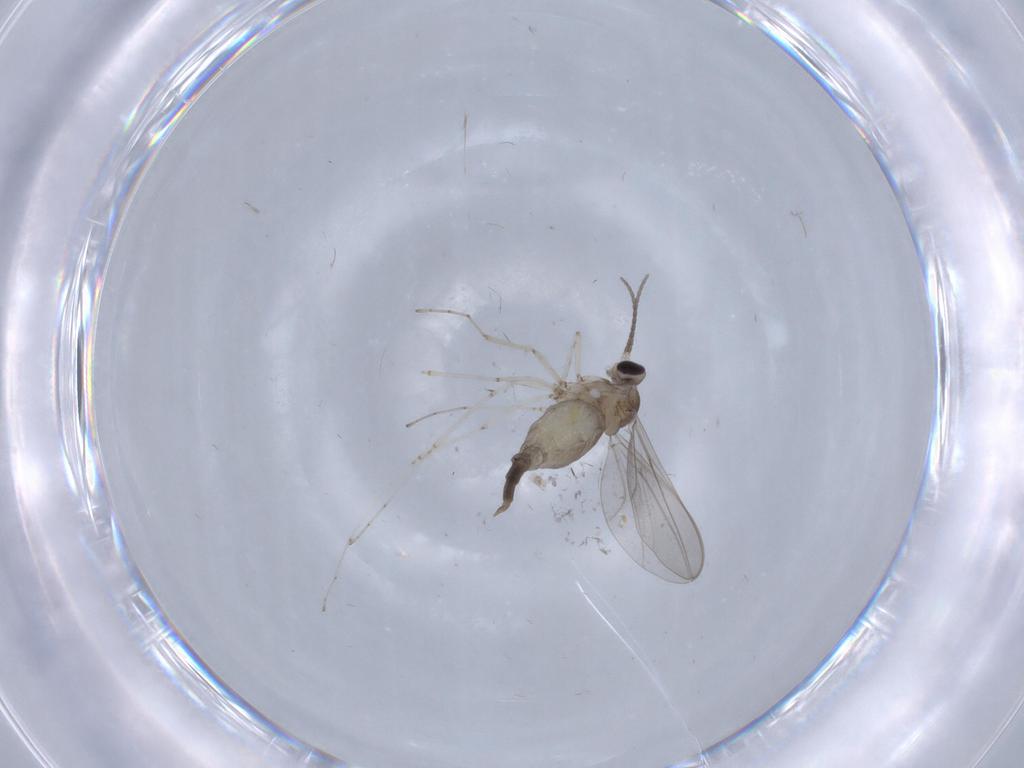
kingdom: Animalia
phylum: Arthropoda
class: Insecta
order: Diptera
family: Cecidomyiidae
